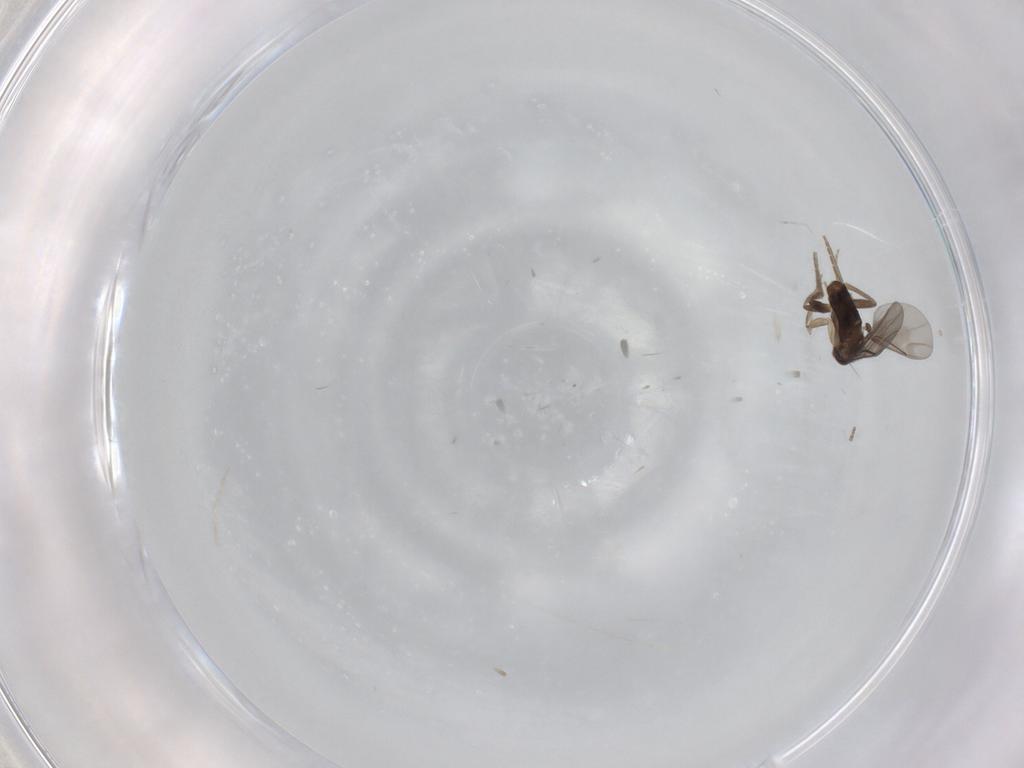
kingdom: Animalia
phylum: Arthropoda
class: Insecta
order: Diptera
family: Cecidomyiidae
